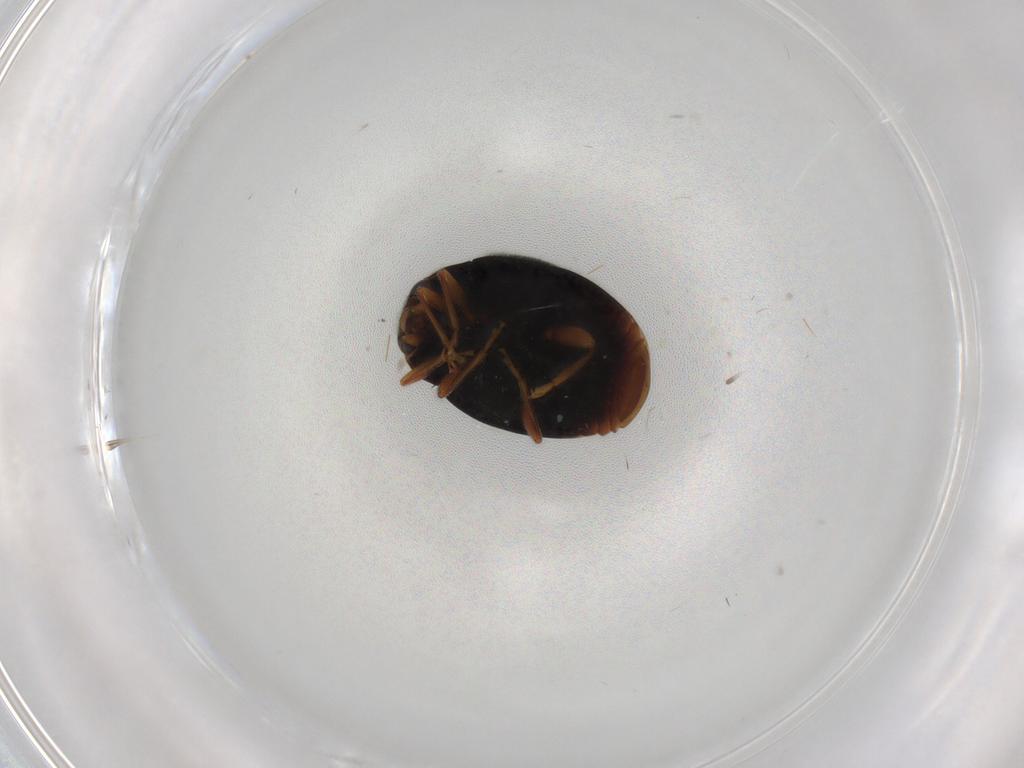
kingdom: Animalia
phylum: Arthropoda
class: Insecta
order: Coleoptera
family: Coccinellidae
